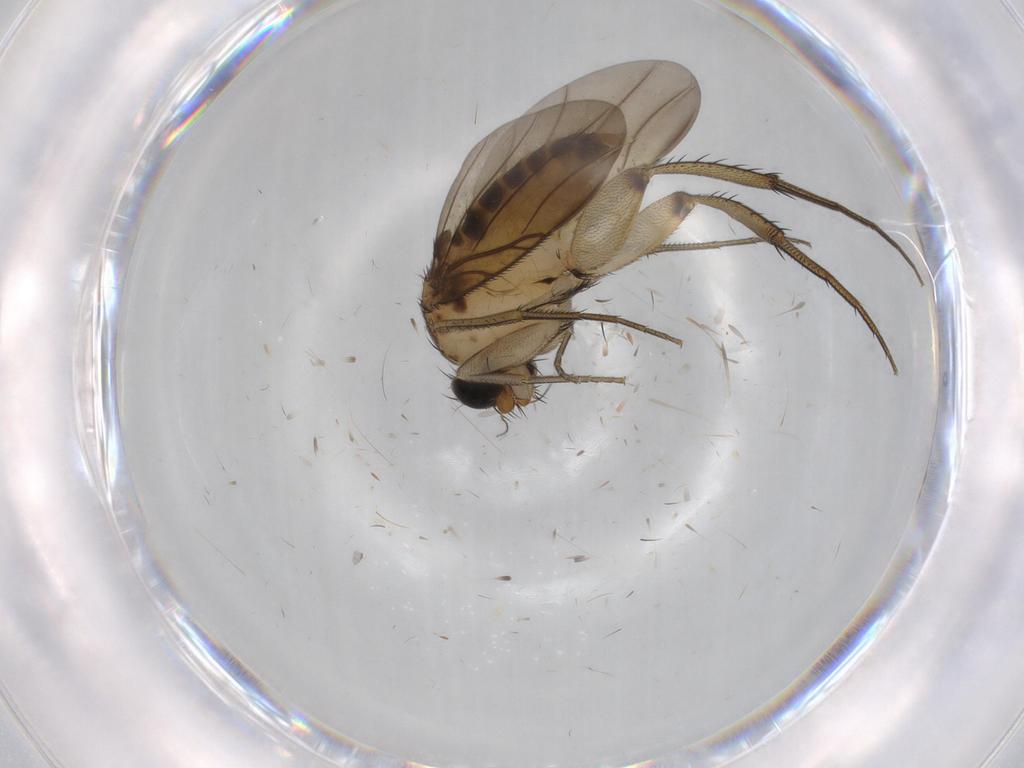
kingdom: Animalia
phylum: Arthropoda
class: Insecta
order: Diptera
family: Phoridae
